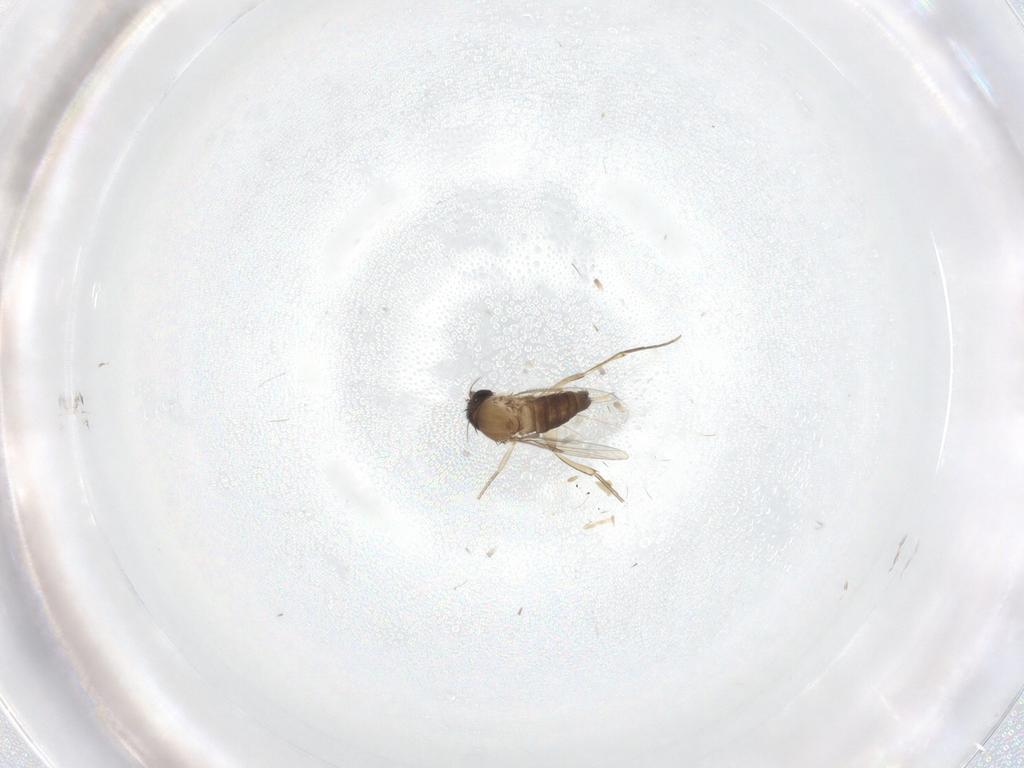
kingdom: Animalia
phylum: Arthropoda
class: Insecta
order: Diptera
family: Phoridae
